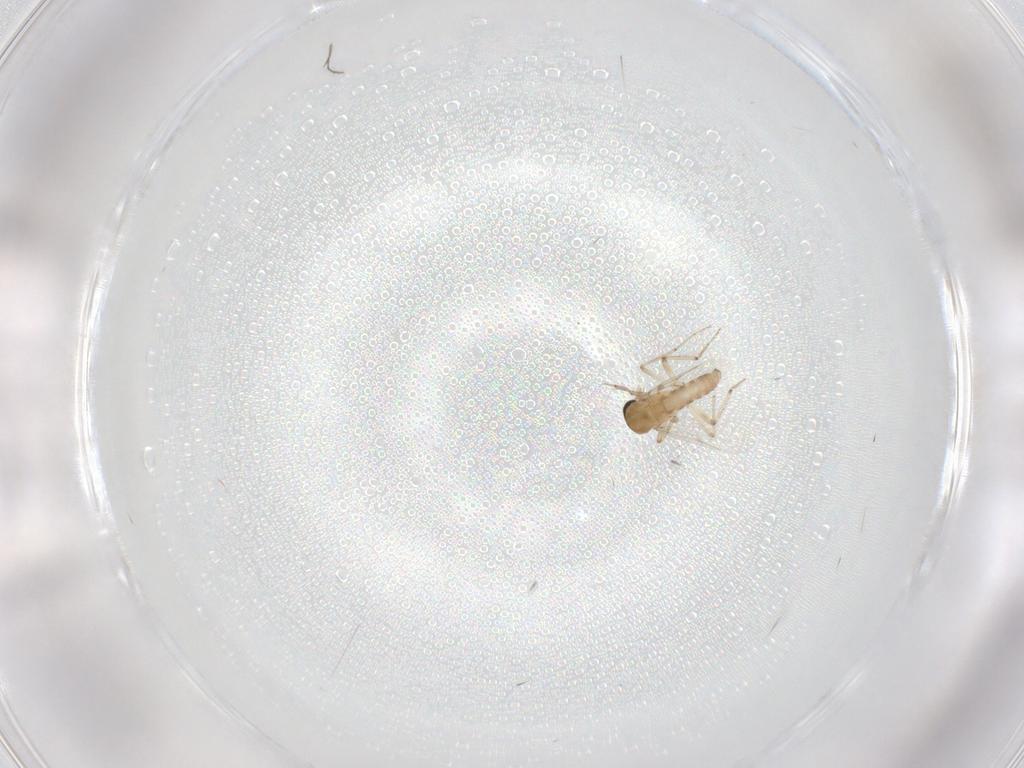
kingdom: Animalia
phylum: Arthropoda
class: Insecta
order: Diptera
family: Ceratopogonidae
